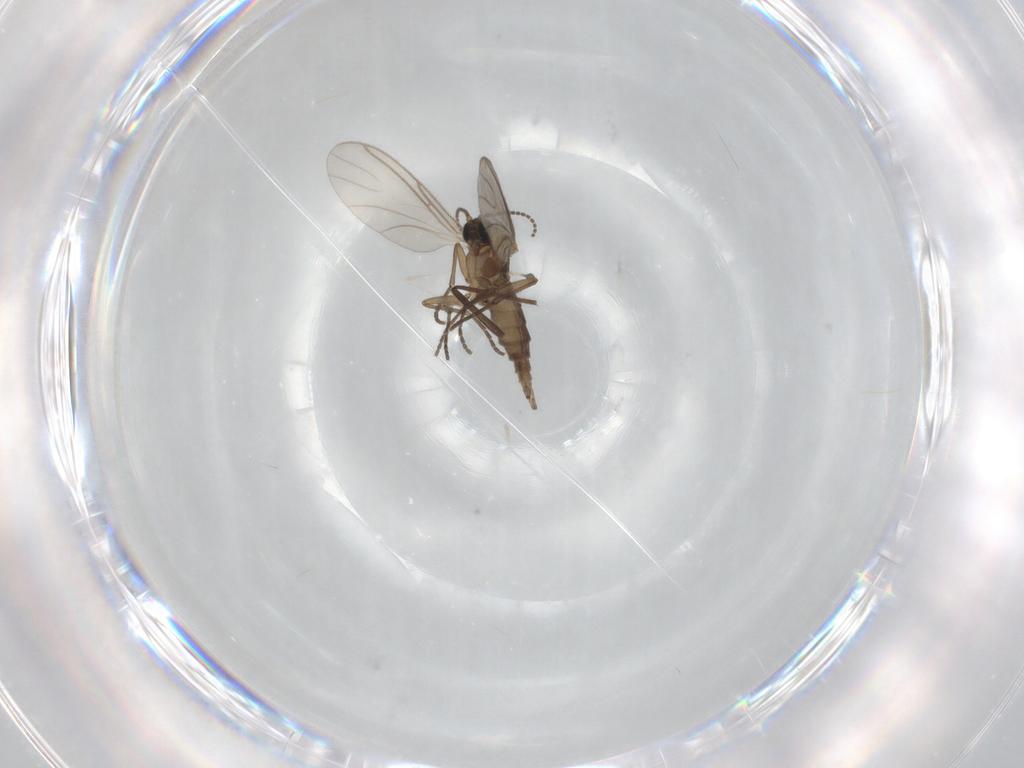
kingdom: Animalia
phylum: Arthropoda
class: Insecta
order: Diptera
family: Sciaridae
